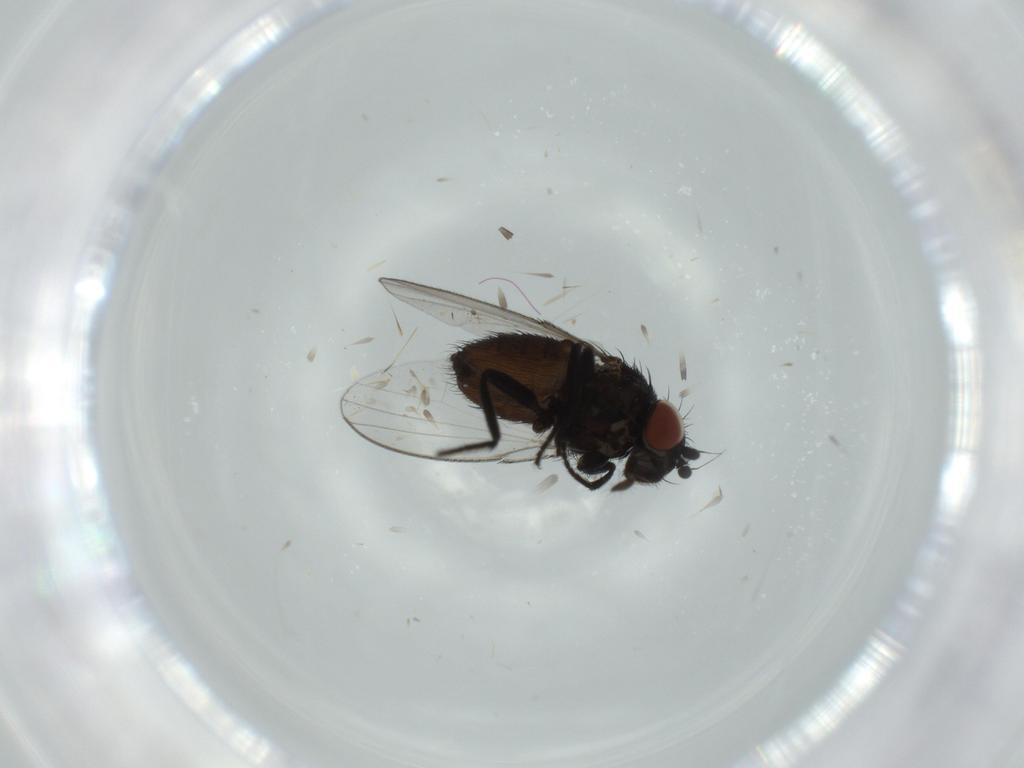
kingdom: Animalia
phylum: Arthropoda
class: Insecta
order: Diptera
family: Milichiidae
